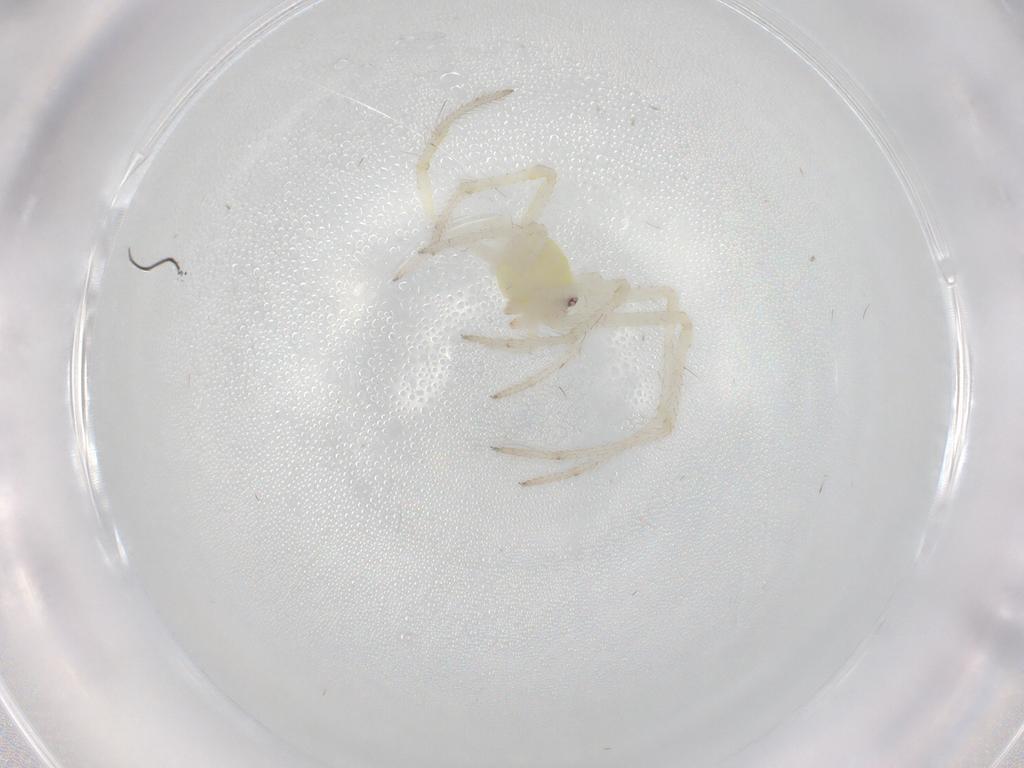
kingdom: Animalia
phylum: Arthropoda
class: Arachnida
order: Araneae
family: Theridiidae
